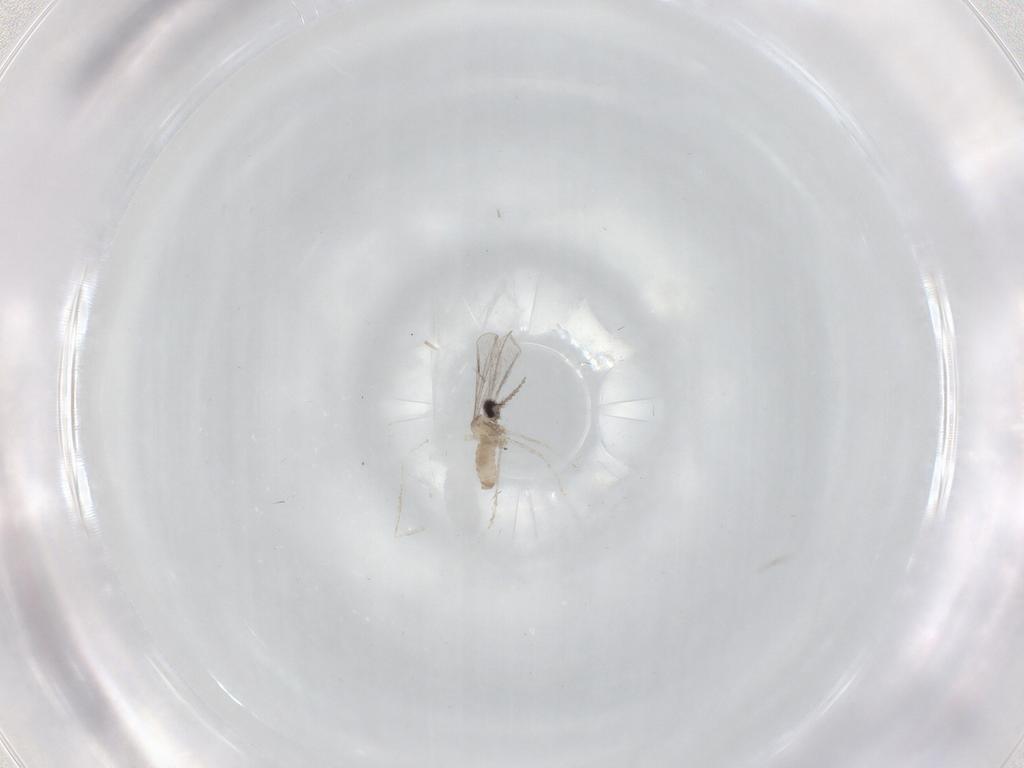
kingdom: Animalia
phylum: Arthropoda
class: Insecta
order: Diptera
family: Cecidomyiidae
